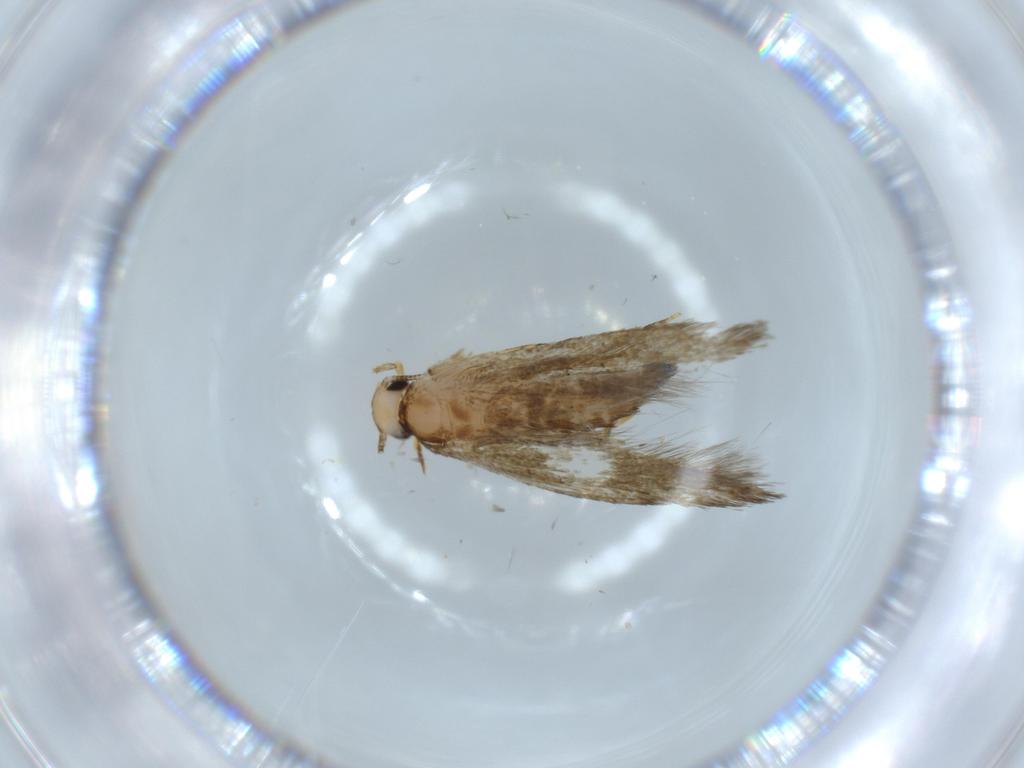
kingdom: Animalia
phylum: Arthropoda
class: Insecta
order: Lepidoptera
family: Tineidae
